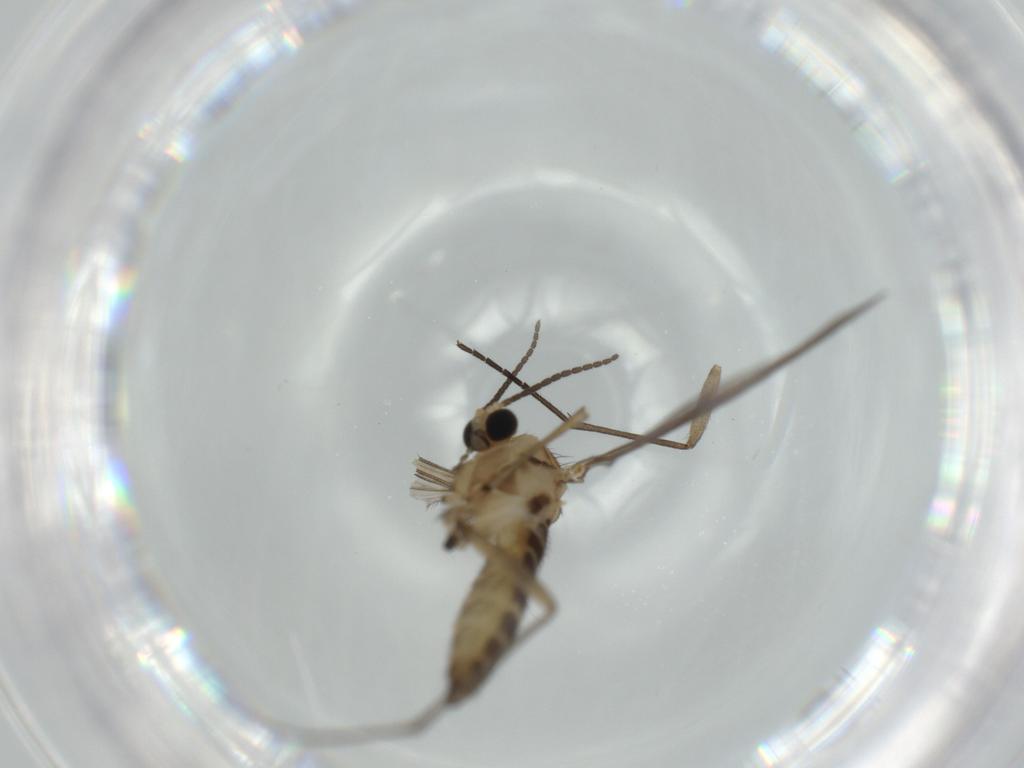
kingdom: Animalia
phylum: Arthropoda
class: Insecta
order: Diptera
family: Sciaridae
